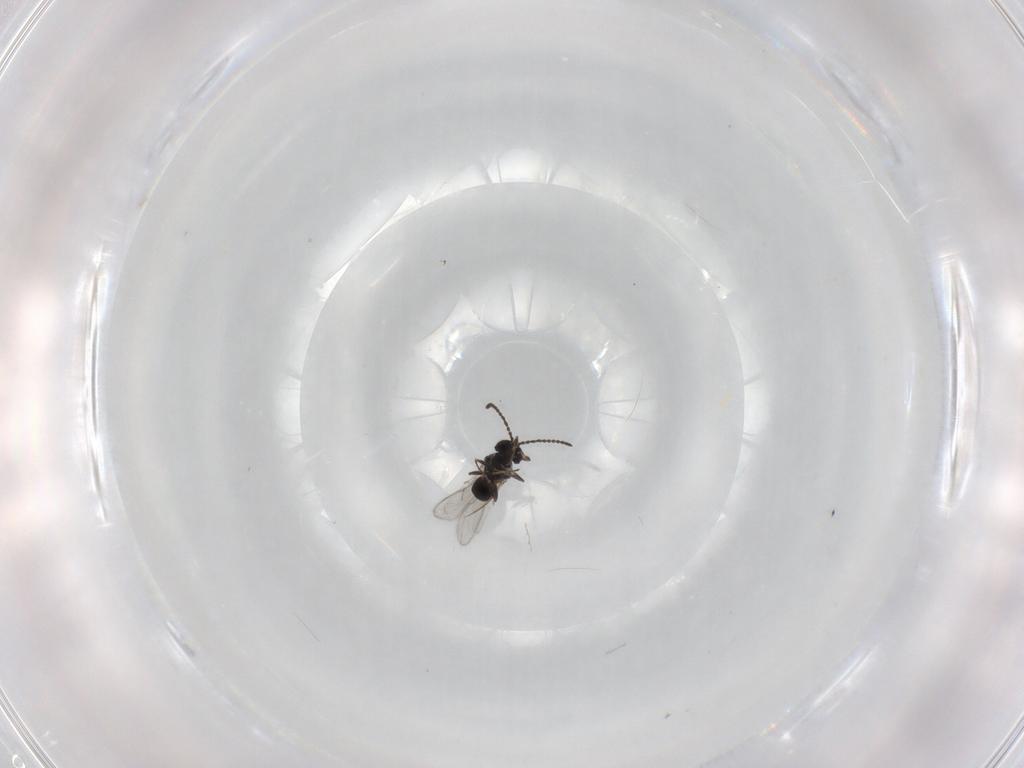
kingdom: Animalia
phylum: Arthropoda
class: Insecta
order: Hymenoptera
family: Scelionidae
